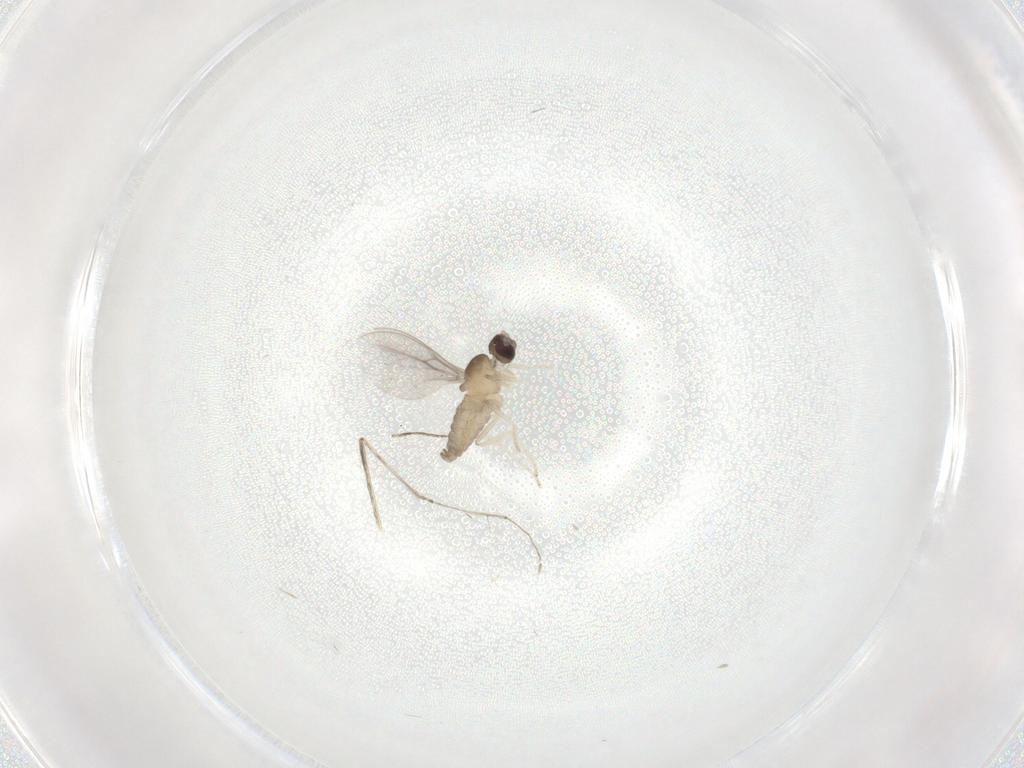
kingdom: Animalia
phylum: Arthropoda
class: Insecta
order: Diptera
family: Cecidomyiidae
